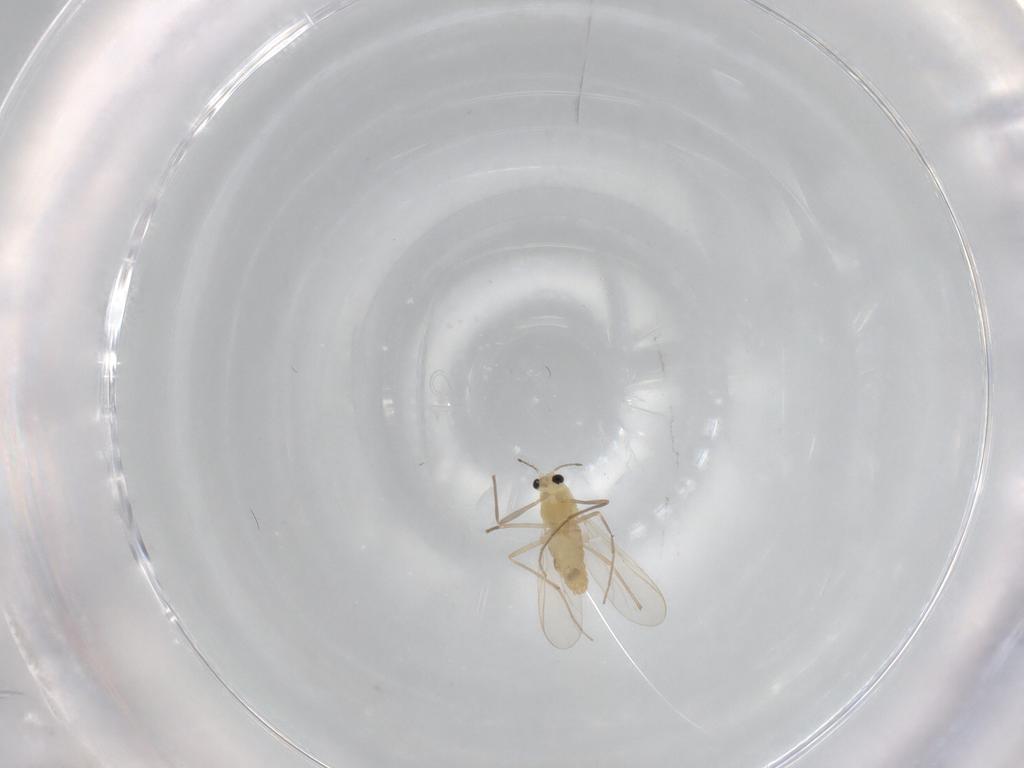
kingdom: Animalia
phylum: Arthropoda
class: Insecta
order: Diptera
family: Chironomidae
